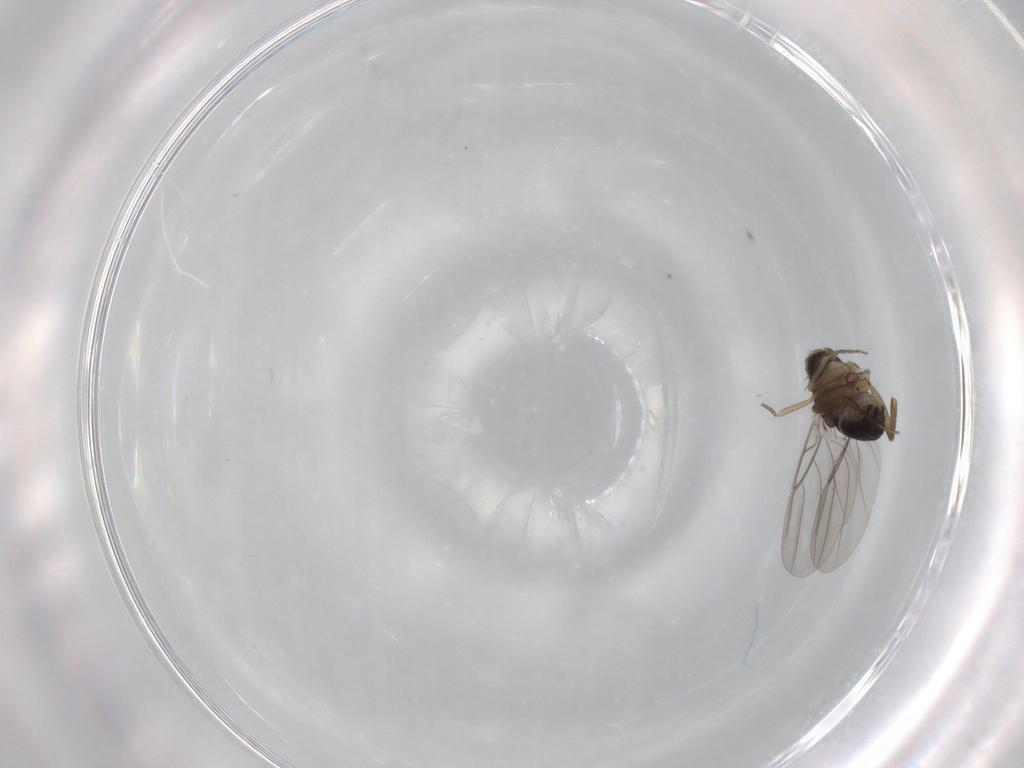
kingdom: Animalia
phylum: Arthropoda
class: Insecta
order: Diptera
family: Phoridae
